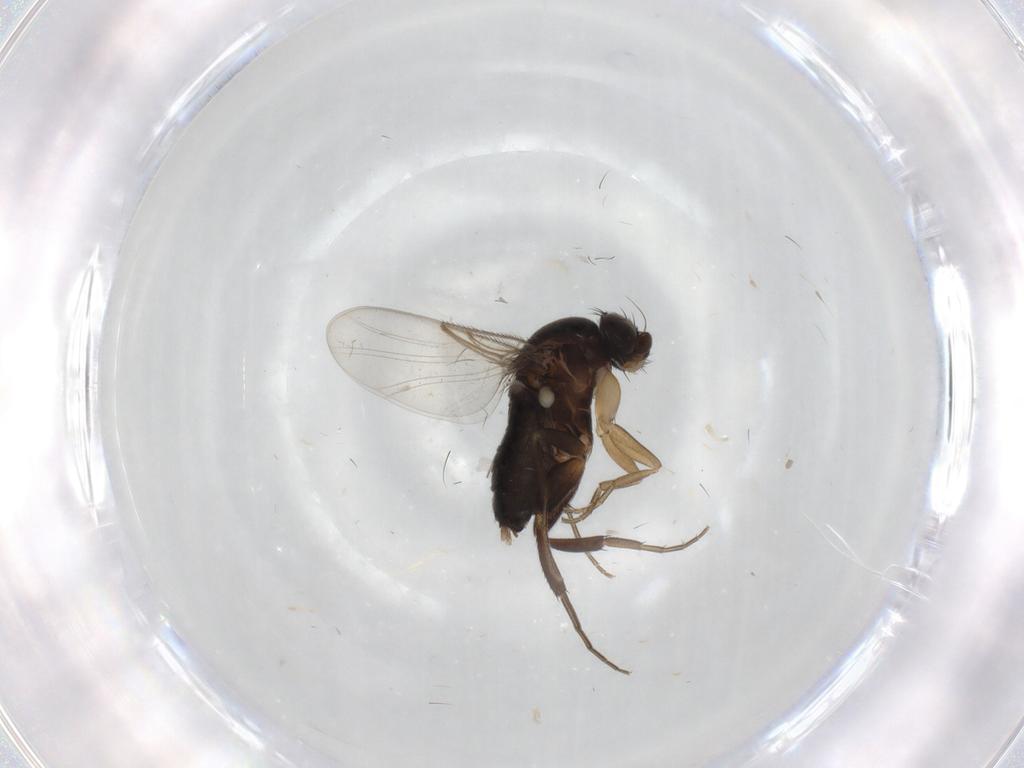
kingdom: Animalia
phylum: Arthropoda
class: Insecta
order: Diptera
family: Phoridae
